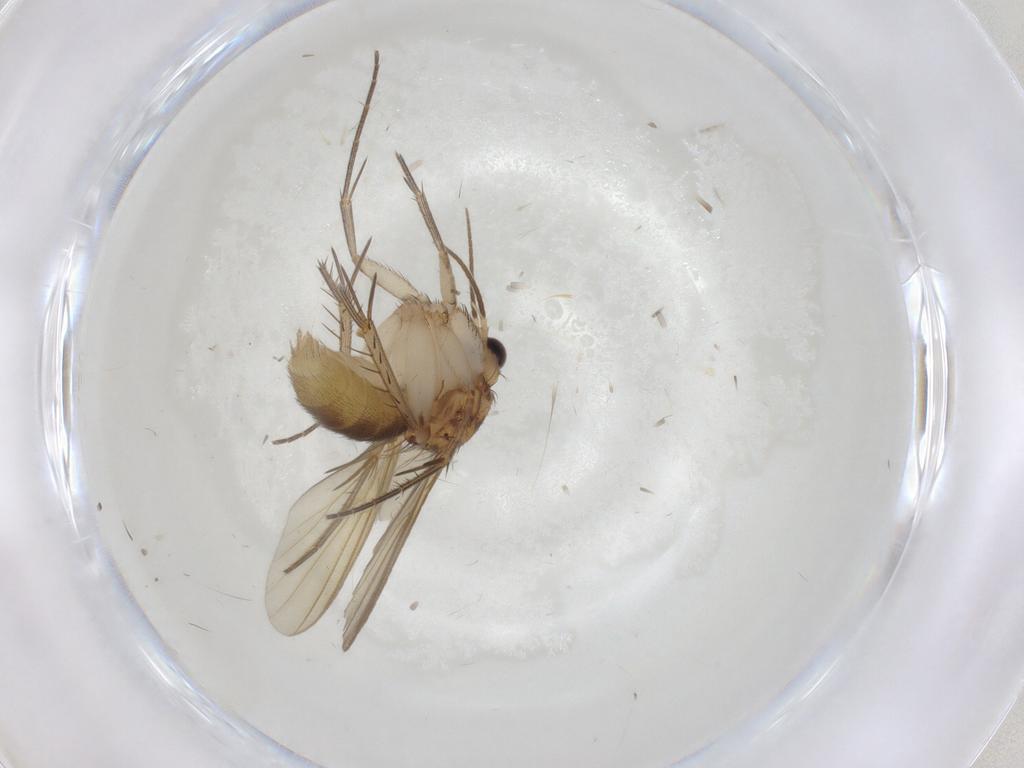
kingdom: Animalia
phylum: Arthropoda
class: Insecta
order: Diptera
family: Mycetophilidae
